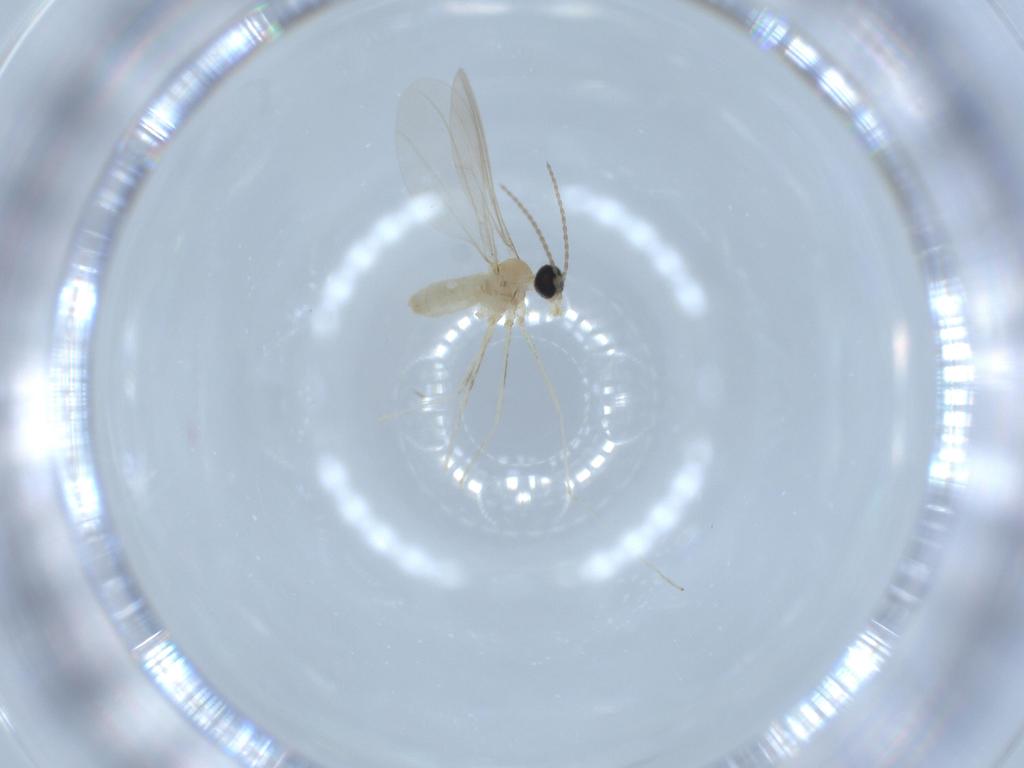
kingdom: Animalia
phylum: Arthropoda
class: Insecta
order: Diptera
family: Cecidomyiidae
